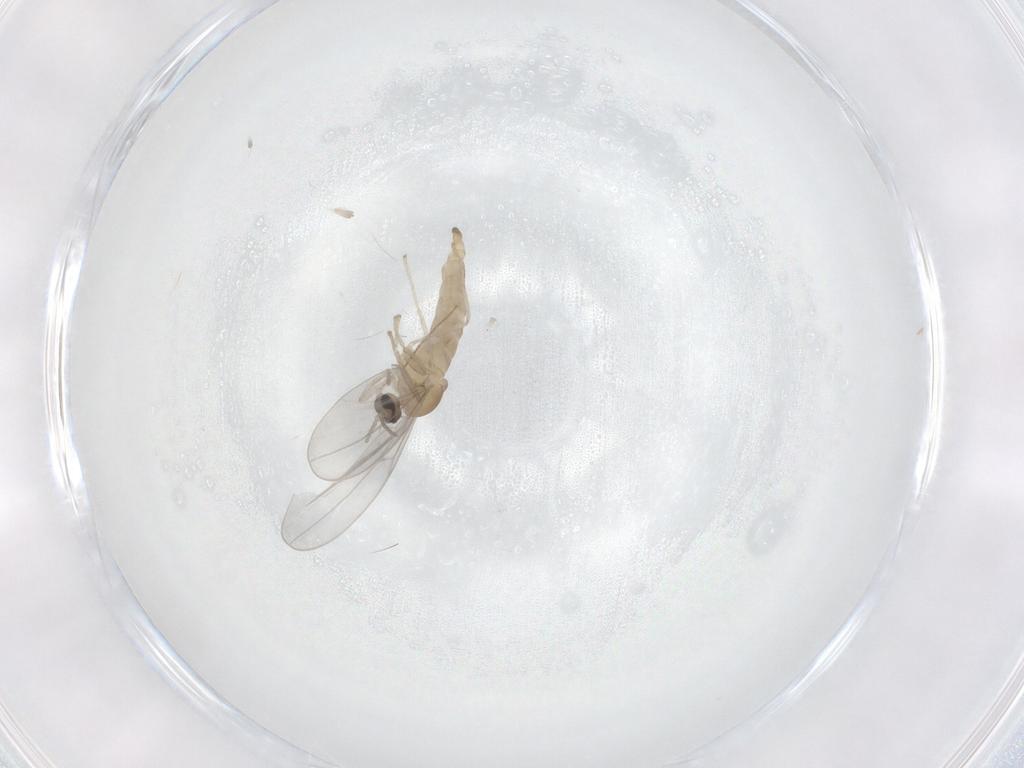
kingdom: Animalia
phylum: Arthropoda
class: Insecta
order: Diptera
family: Cecidomyiidae
